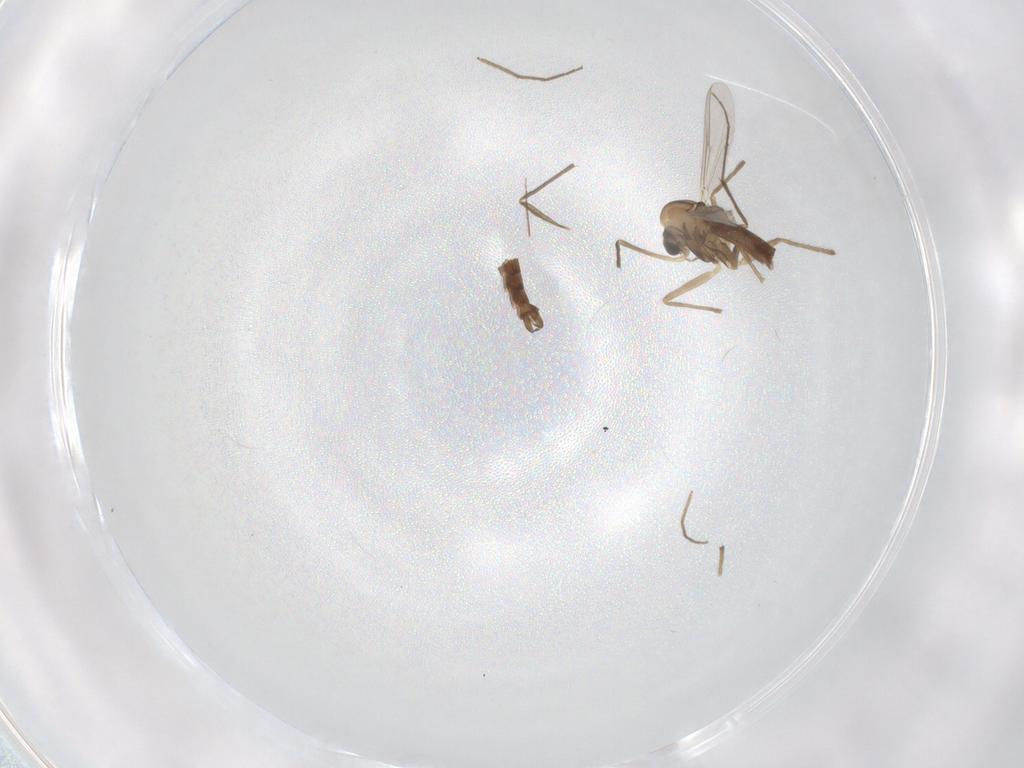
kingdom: Animalia
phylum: Arthropoda
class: Insecta
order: Diptera
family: Chironomidae
